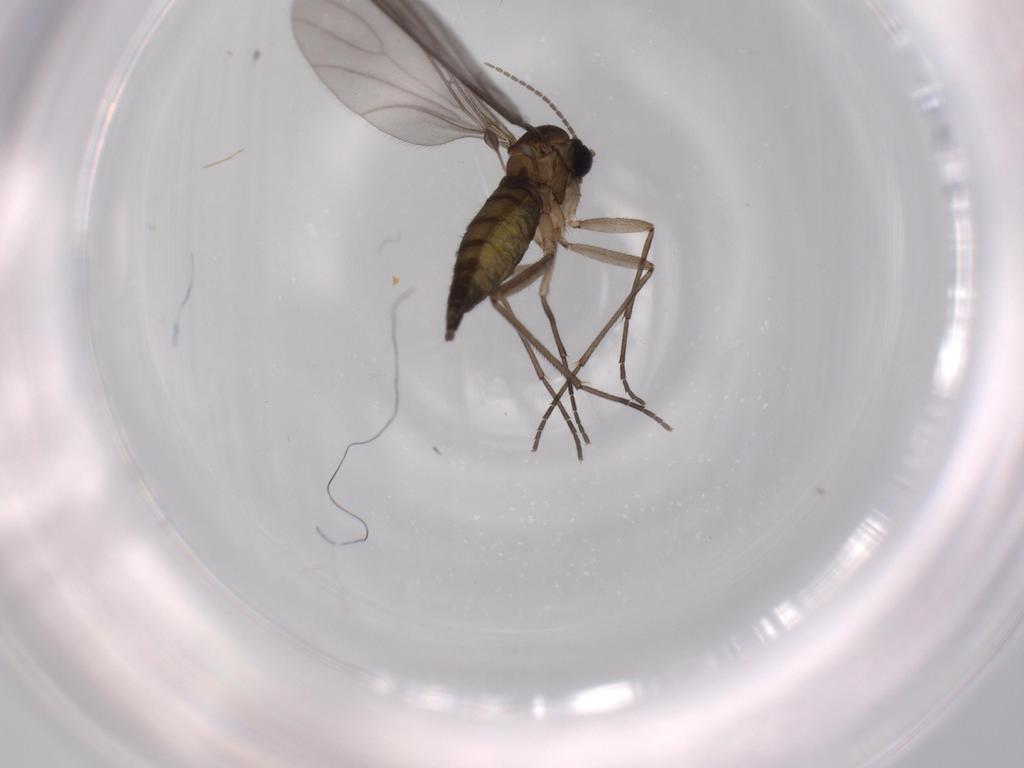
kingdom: Animalia
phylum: Arthropoda
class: Insecta
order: Diptera
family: Sciaridae
